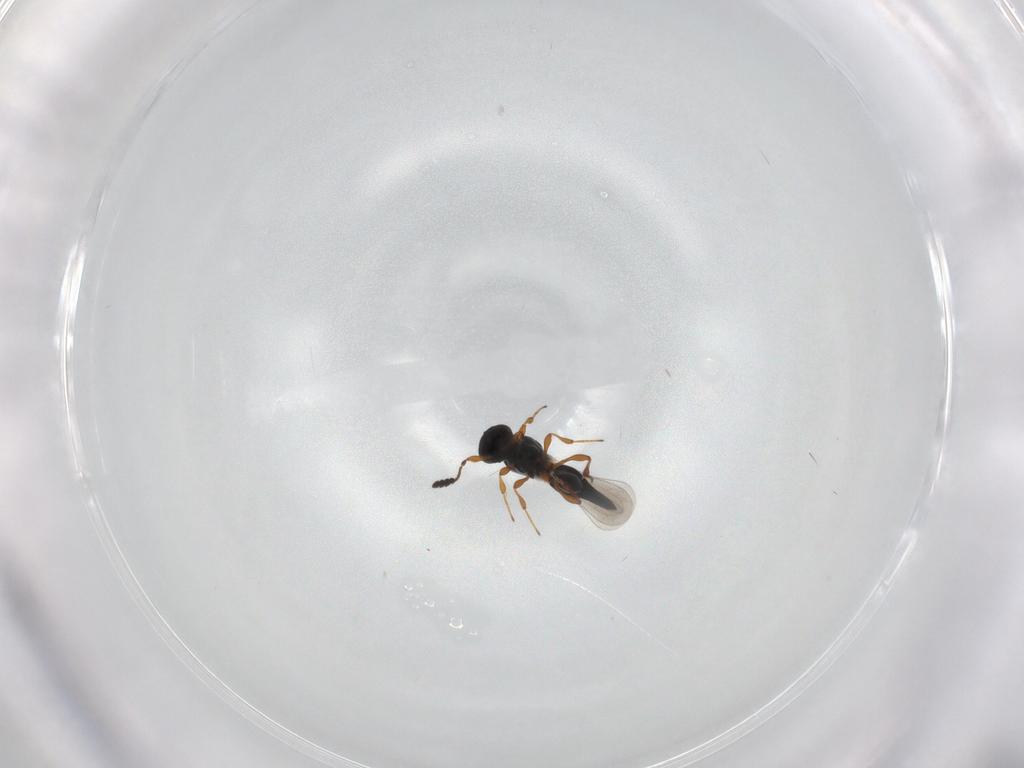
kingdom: Animalia
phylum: Arthropoda
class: Insecta
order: Hymenoptera
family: Platygastridae
